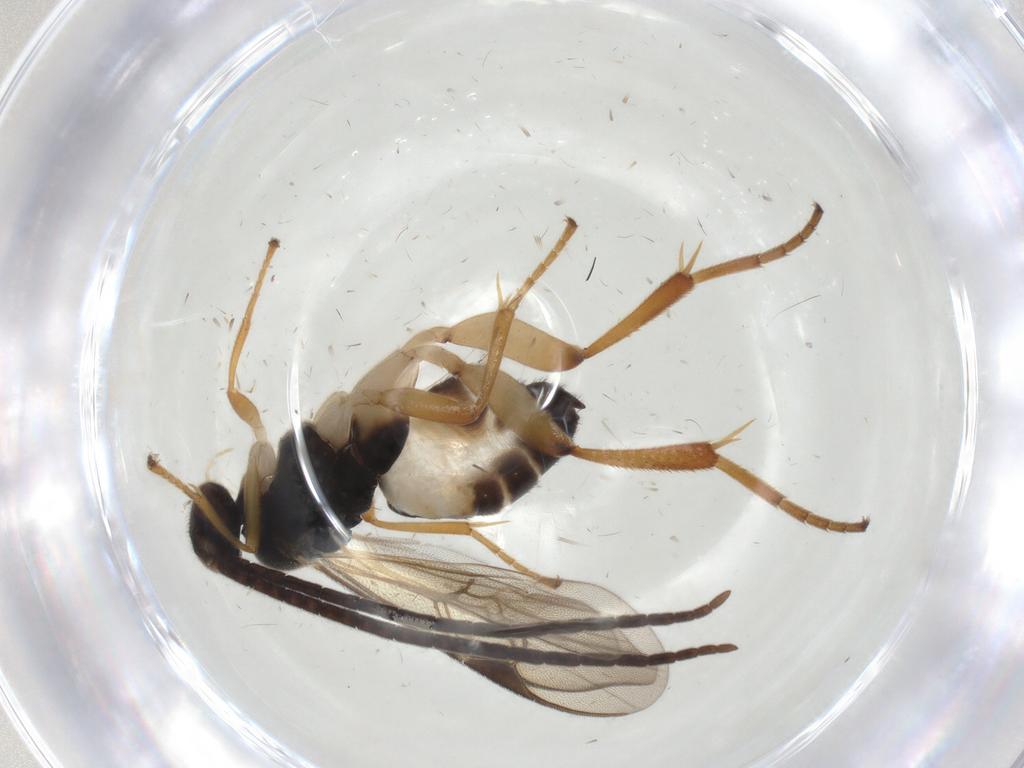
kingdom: Animalia
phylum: Arthropoda
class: Insecta
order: Hymenoptera
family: Braconidae
